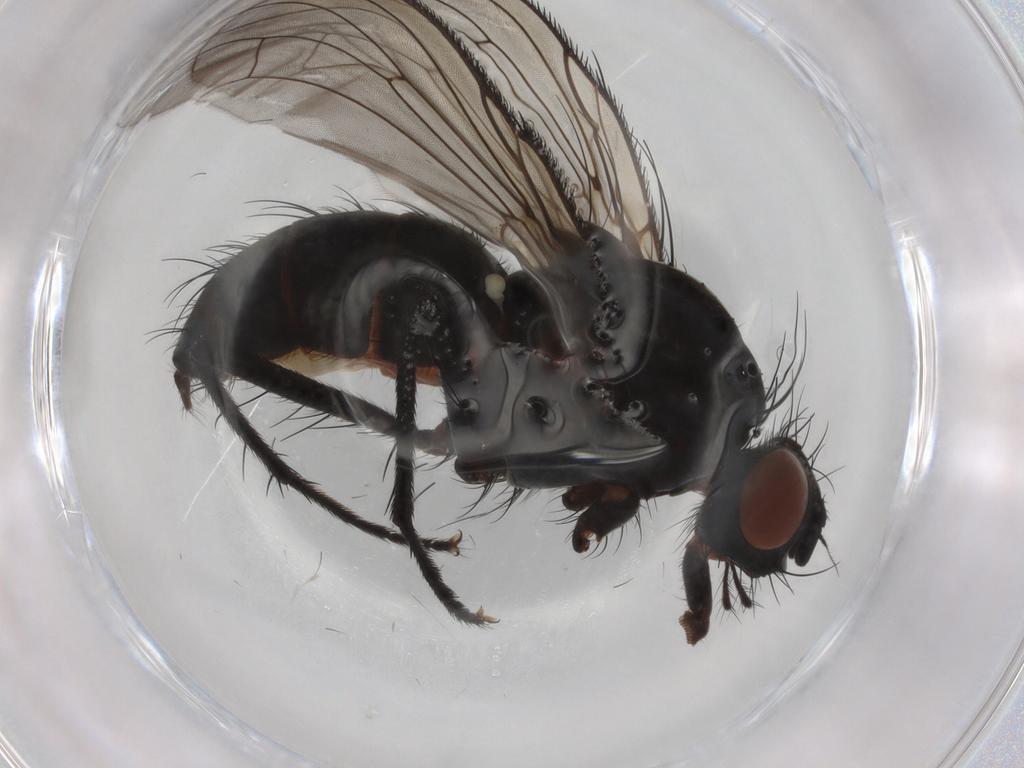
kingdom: Animalia
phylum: Arthropoda
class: Insecta
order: Diptera
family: Anthomyiidae
